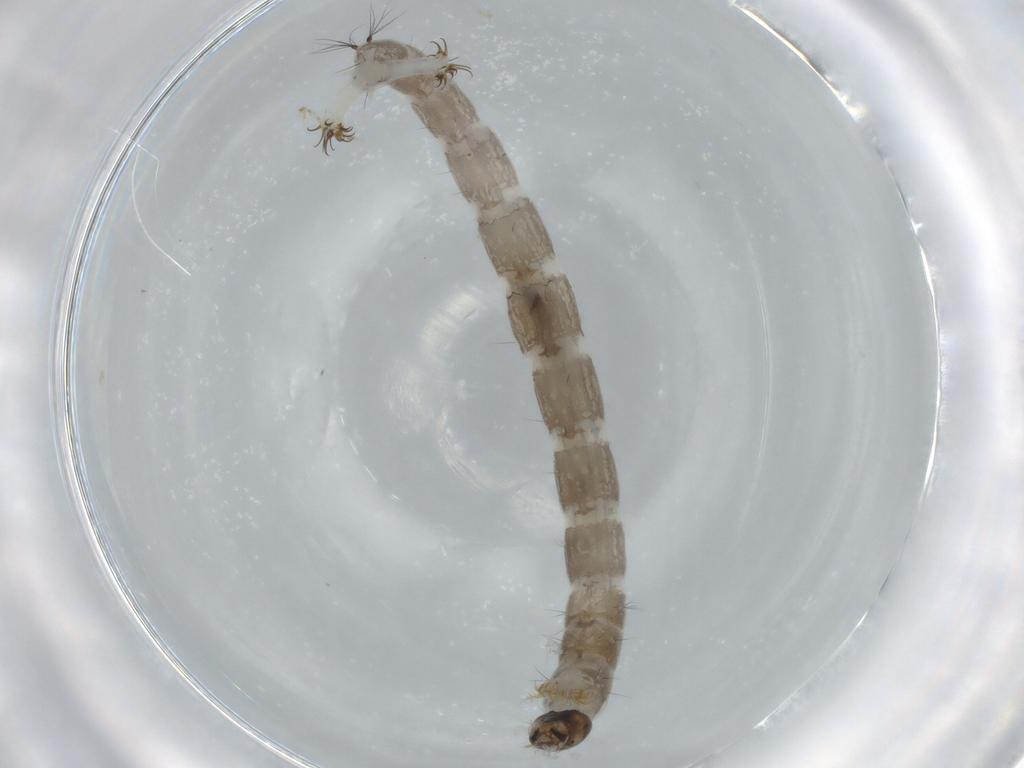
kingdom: Animalia
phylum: Arthropoda
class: Insecta
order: Diptera
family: Chironomidae
